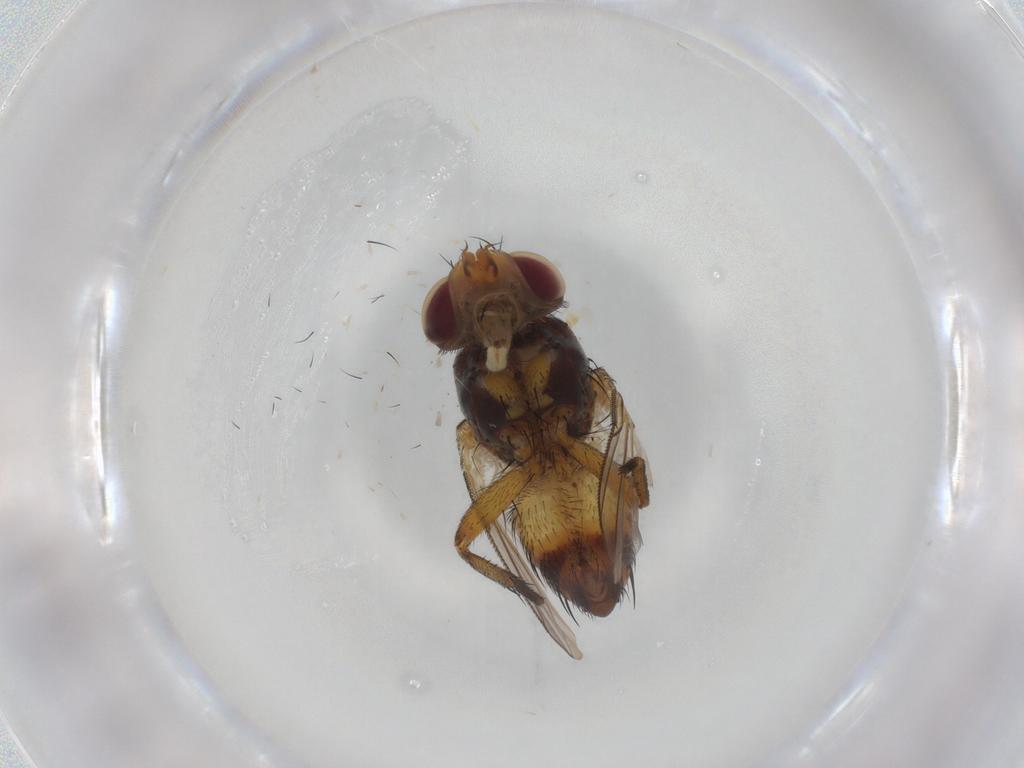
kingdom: Animalia
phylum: Arthropoda
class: Insecta
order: Diptera
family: Tachinidae
